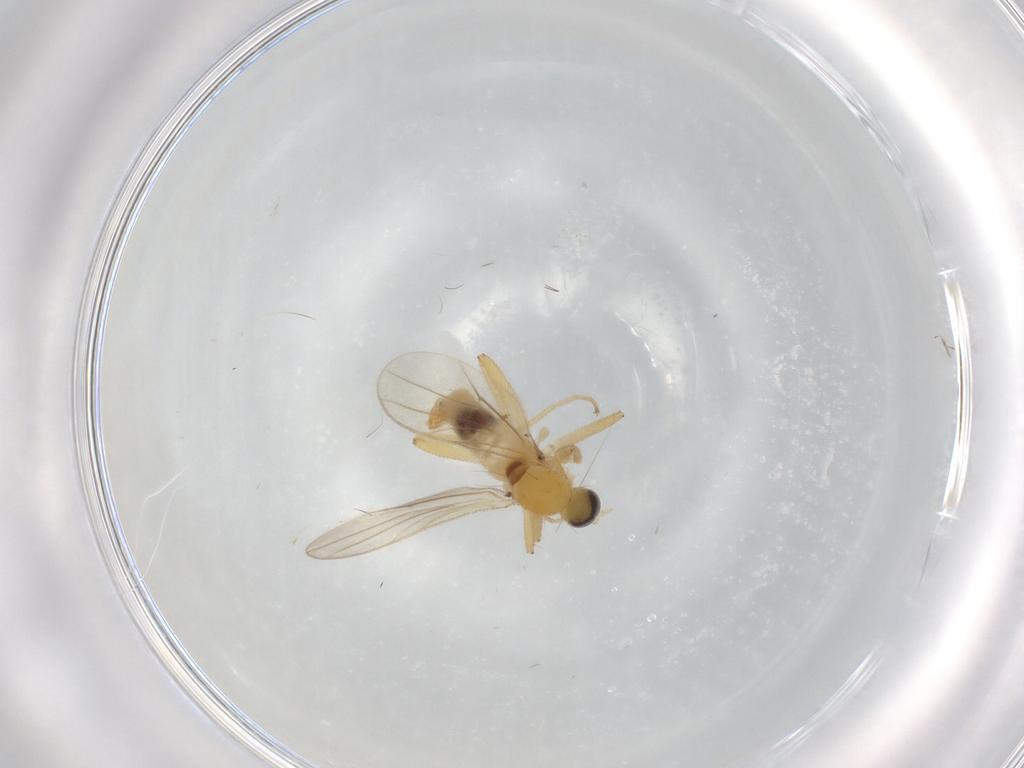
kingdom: Animalia
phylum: Arthropoda
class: Insecta
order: Diptera
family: Hybotidae
